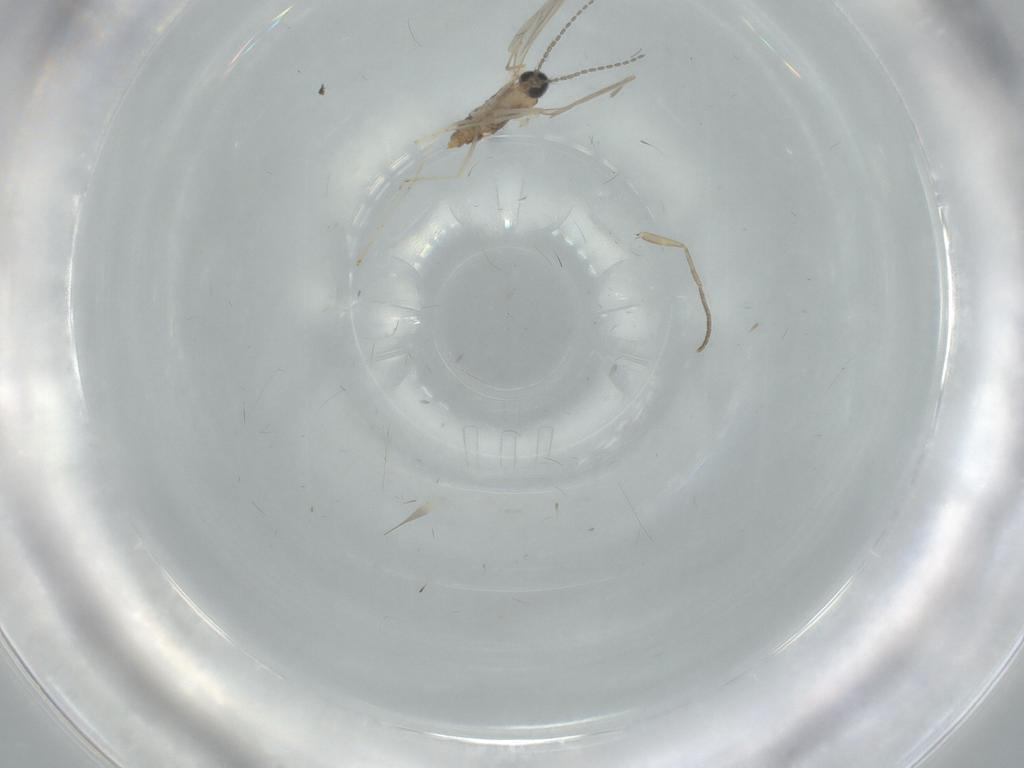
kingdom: Animalia
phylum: Arthropoda
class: Insecta
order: Diptera
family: Cecidomyiidae
